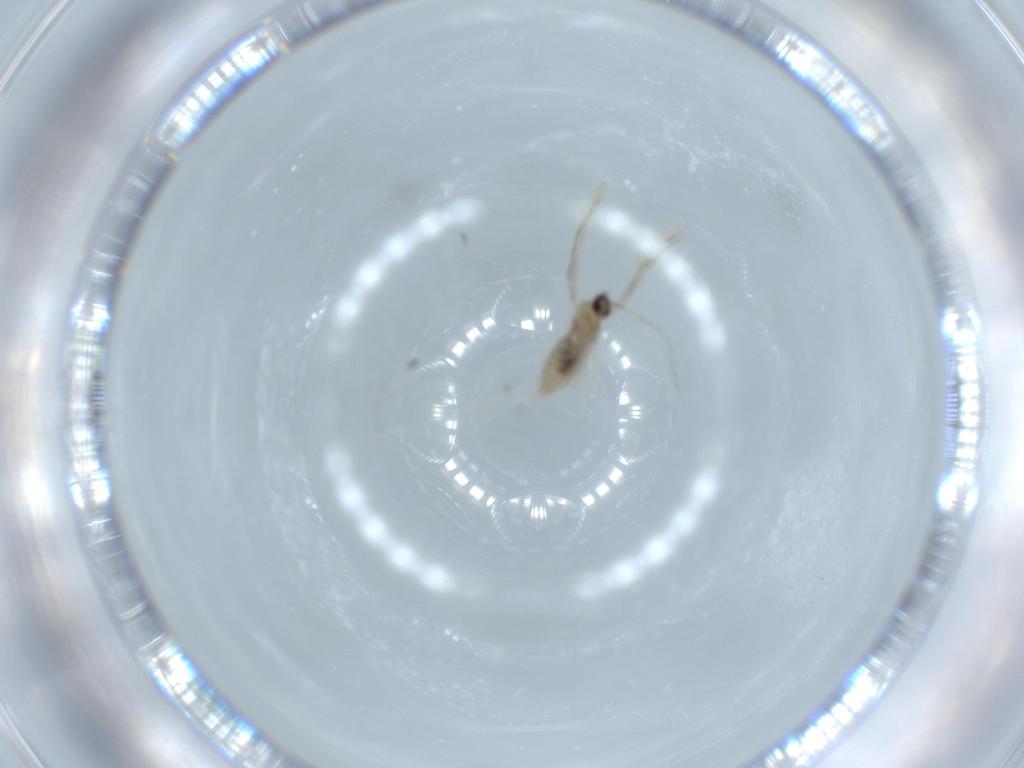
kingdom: Animalia
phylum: Arthropoda
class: Insecta
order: Diptera
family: Cecidomyiidae
